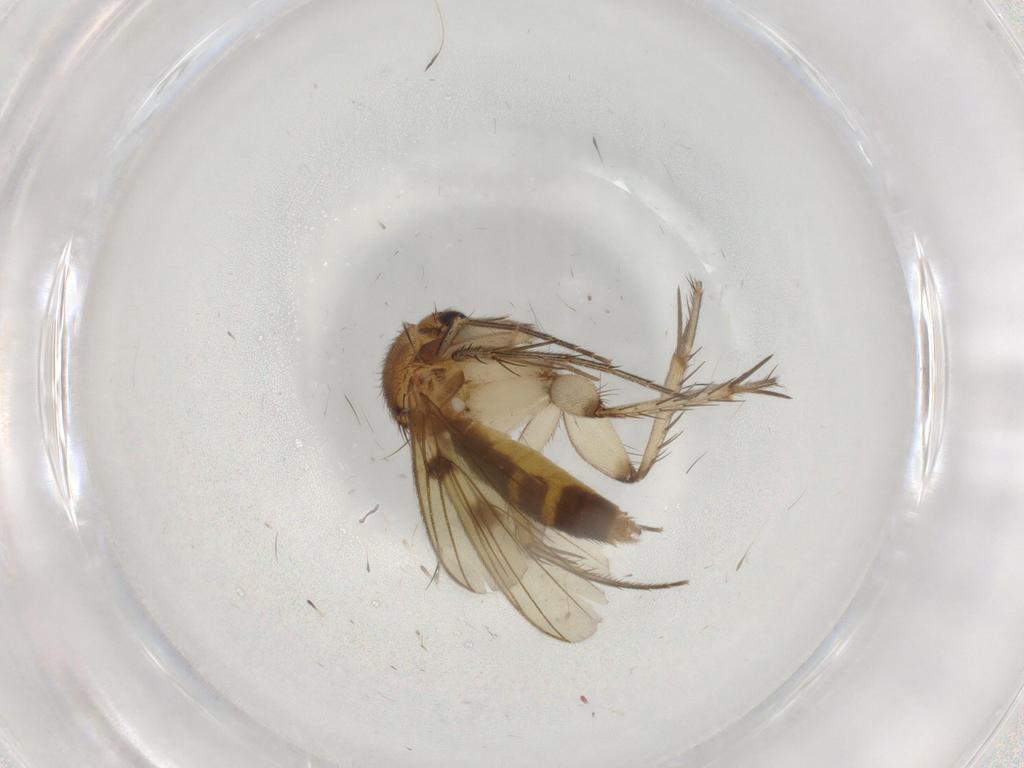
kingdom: Animalia
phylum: Arthropoda
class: Insecta
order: Diptera
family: Mycetophilidae
